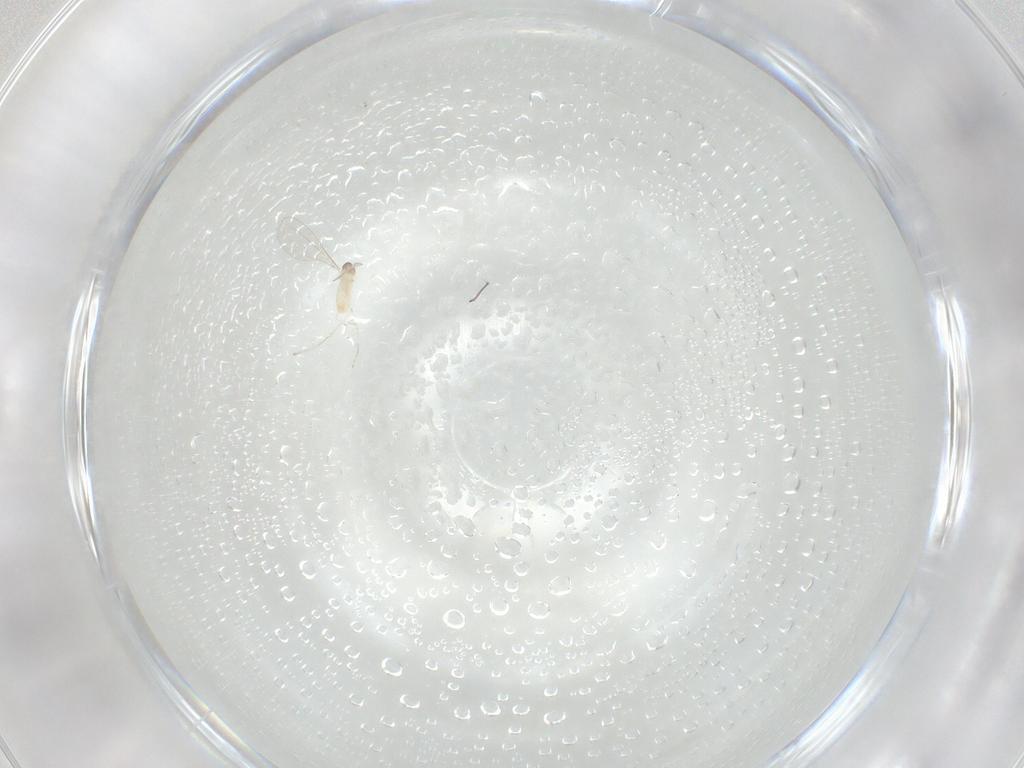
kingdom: Animalia
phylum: Arthropoda
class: Insecta
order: Diptera
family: Cecidomyiidae
